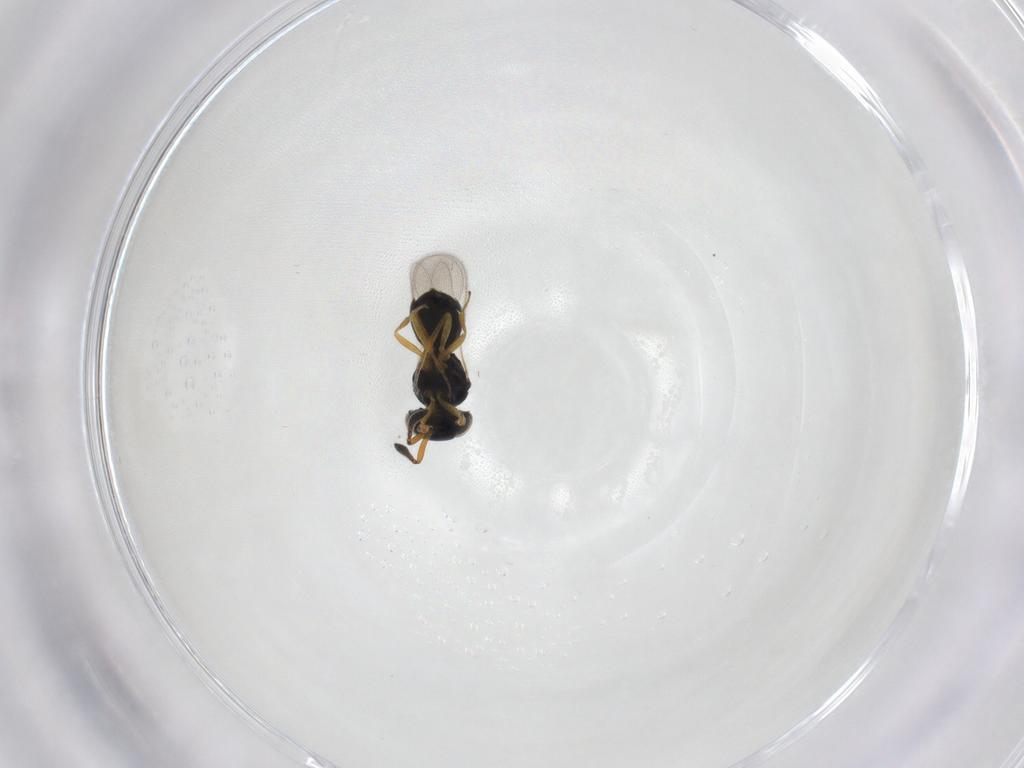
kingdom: Animalia
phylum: Arthropoda
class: Insecta
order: Hymenoptera
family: Scelionidae
